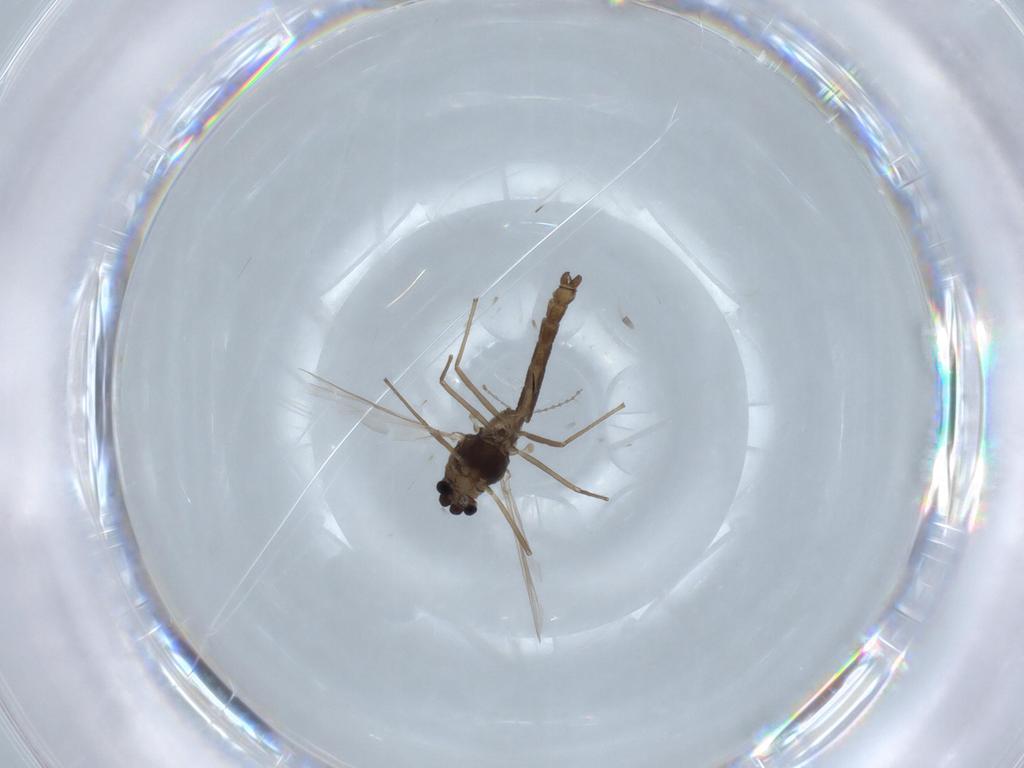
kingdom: Animalia
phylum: Arthropoda
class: Insecta
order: Diptera
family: Chironomidae
